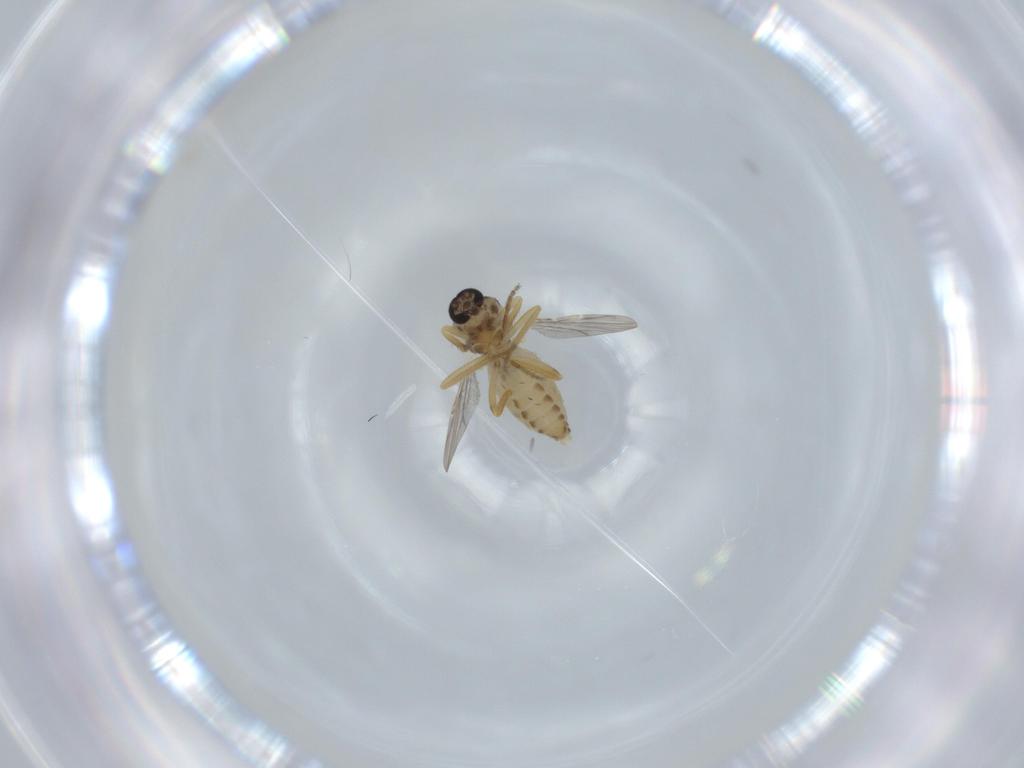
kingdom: Animalia
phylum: Arthropoda
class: Insecta
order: Diptera
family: Ceratopogonidae
